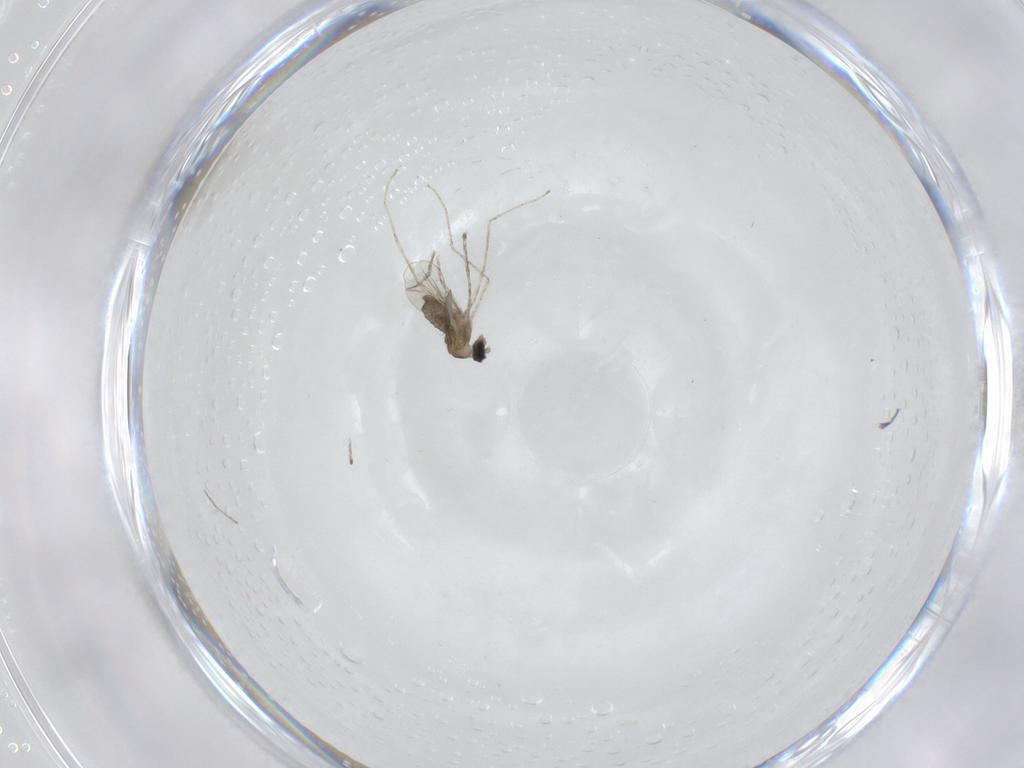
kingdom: Animalia
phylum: Arthropoda
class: Insecta
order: Diptera
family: Cecidomyiidae
